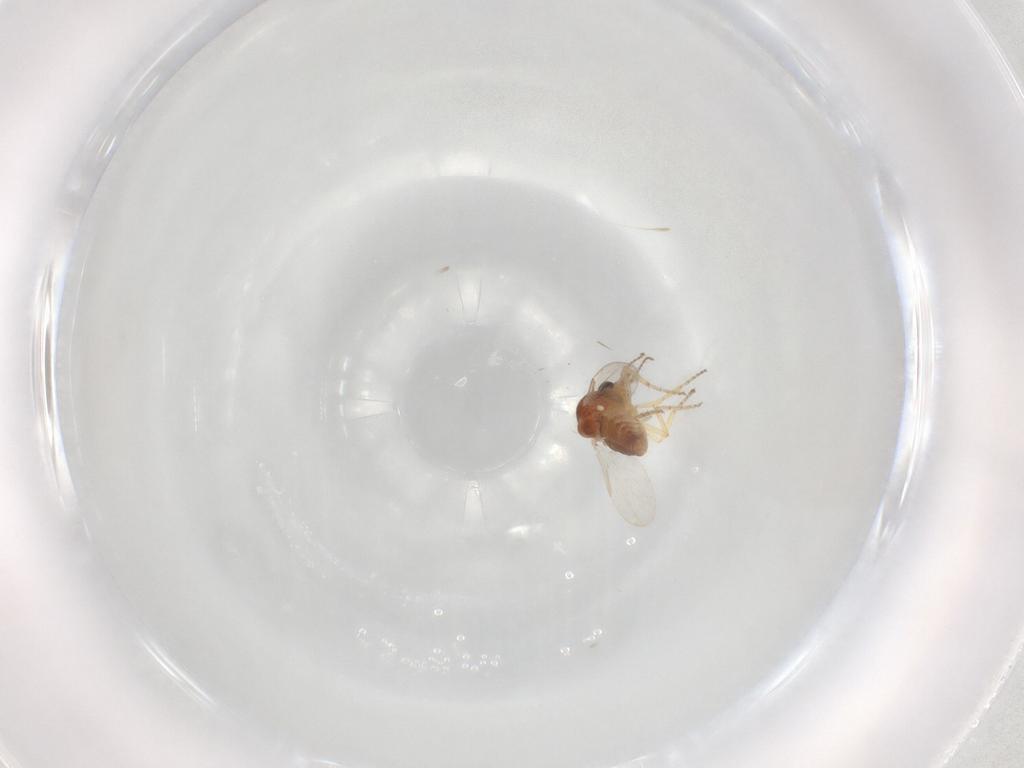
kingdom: Animalia
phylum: Arthropoda
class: Insecta
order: Diptera
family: Ceratopogonidae
